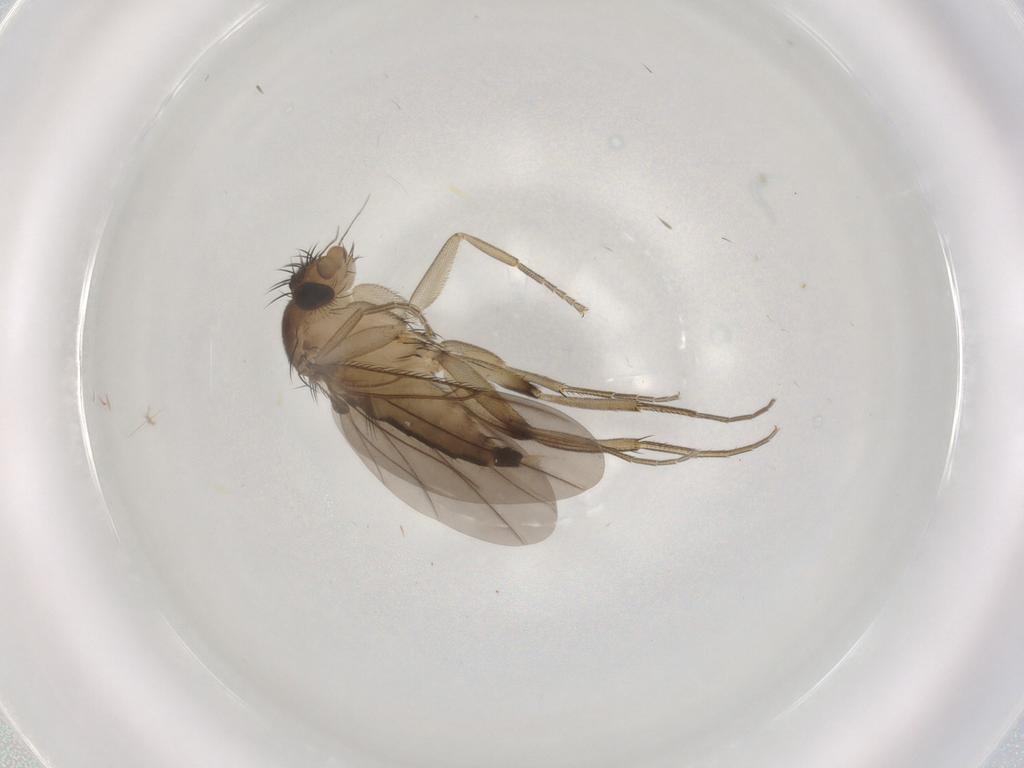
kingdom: Animalia
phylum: Arthropoda
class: Insecta
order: Diptera
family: Phoridae
